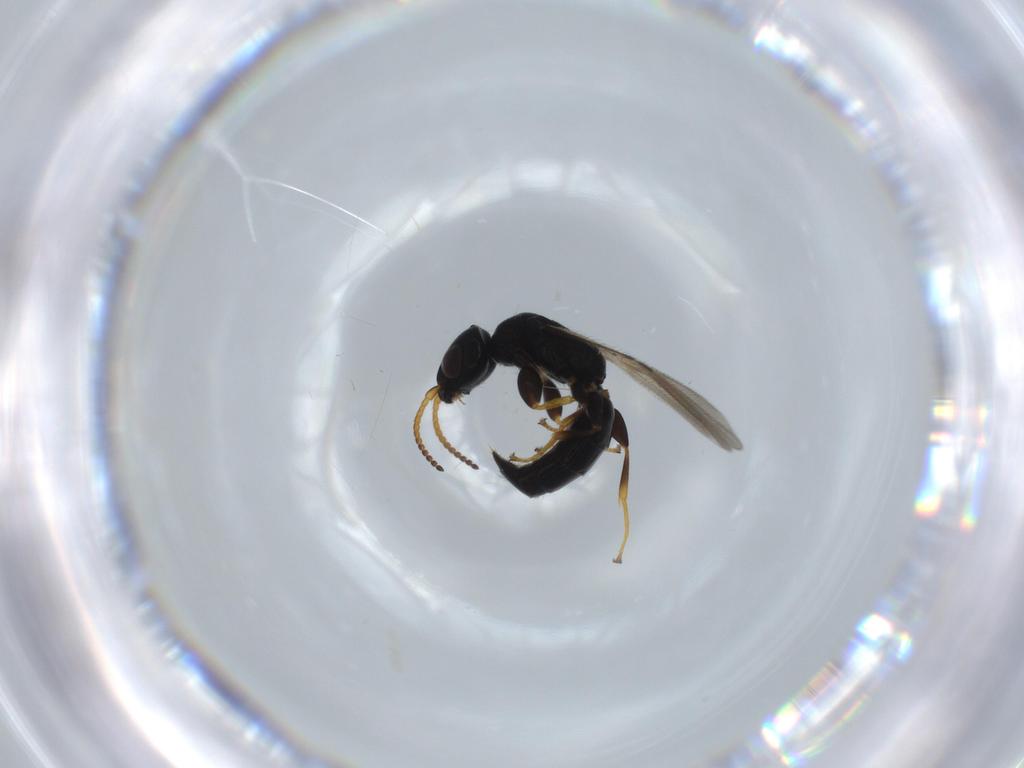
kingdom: Animalia
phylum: Arthropoda
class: Insecta
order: Hymenoptera
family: Bethylidae
